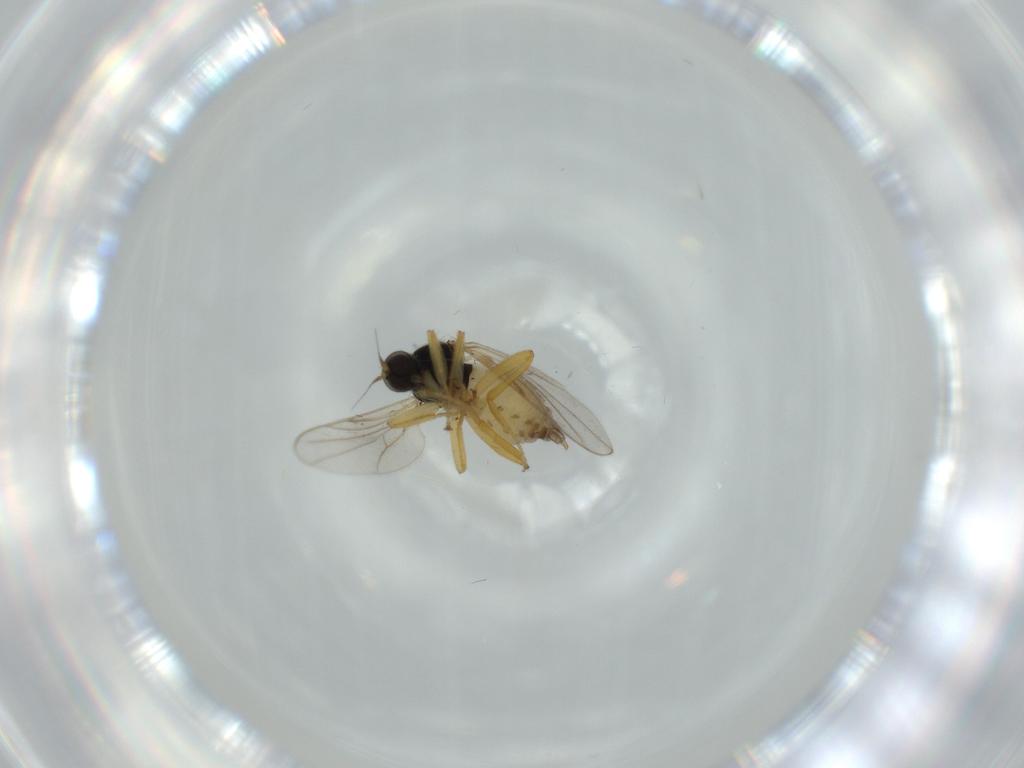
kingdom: Animalia
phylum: Arthropoda
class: Insecta
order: Diptera
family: Hybotidae
